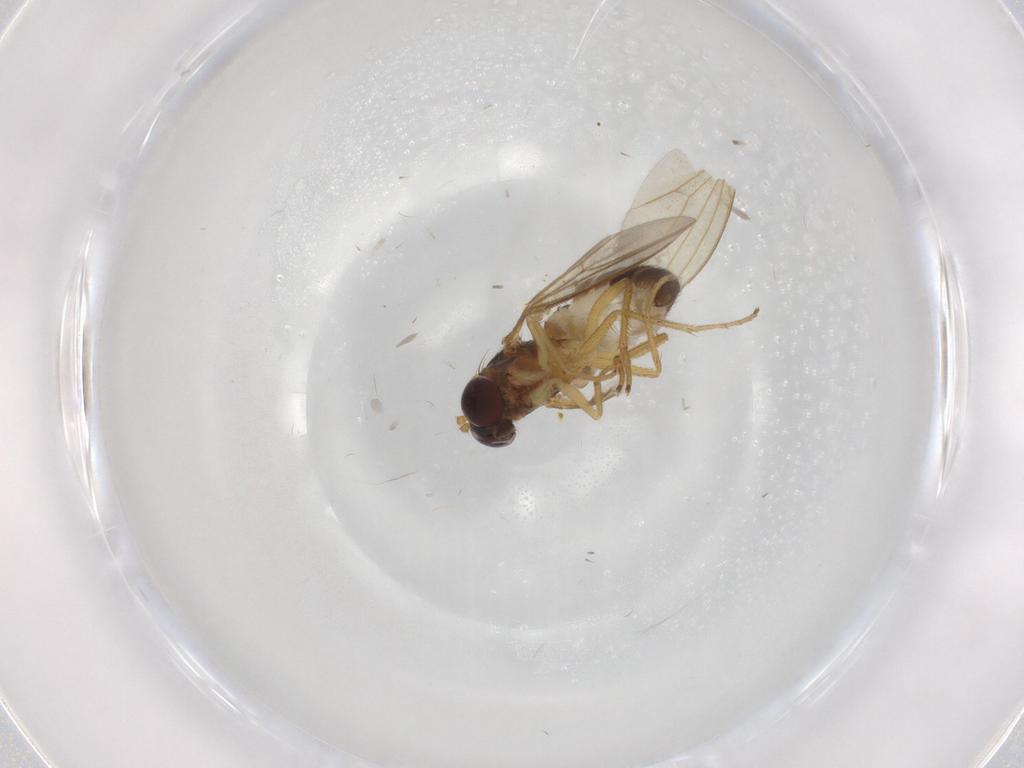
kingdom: Animalia
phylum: Arthropoda
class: Insecta
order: Diptera
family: Dolichopodidae
